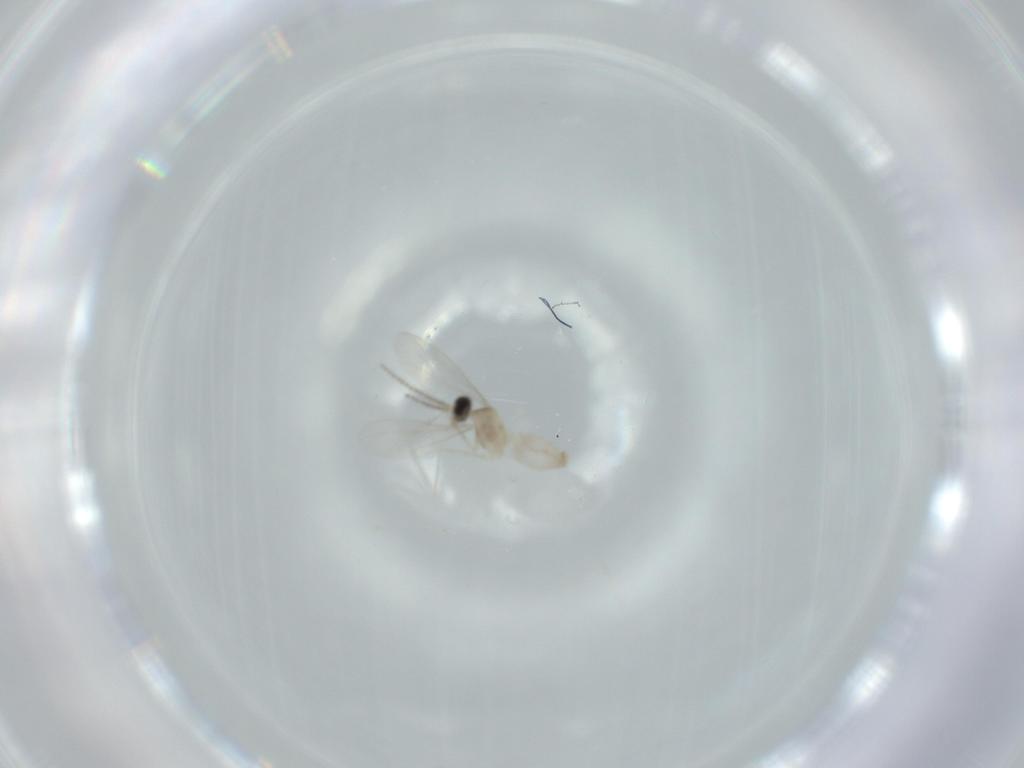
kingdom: Animalia
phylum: Arthropoda
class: Insecta
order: Diptera
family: Cecidomyiidae
